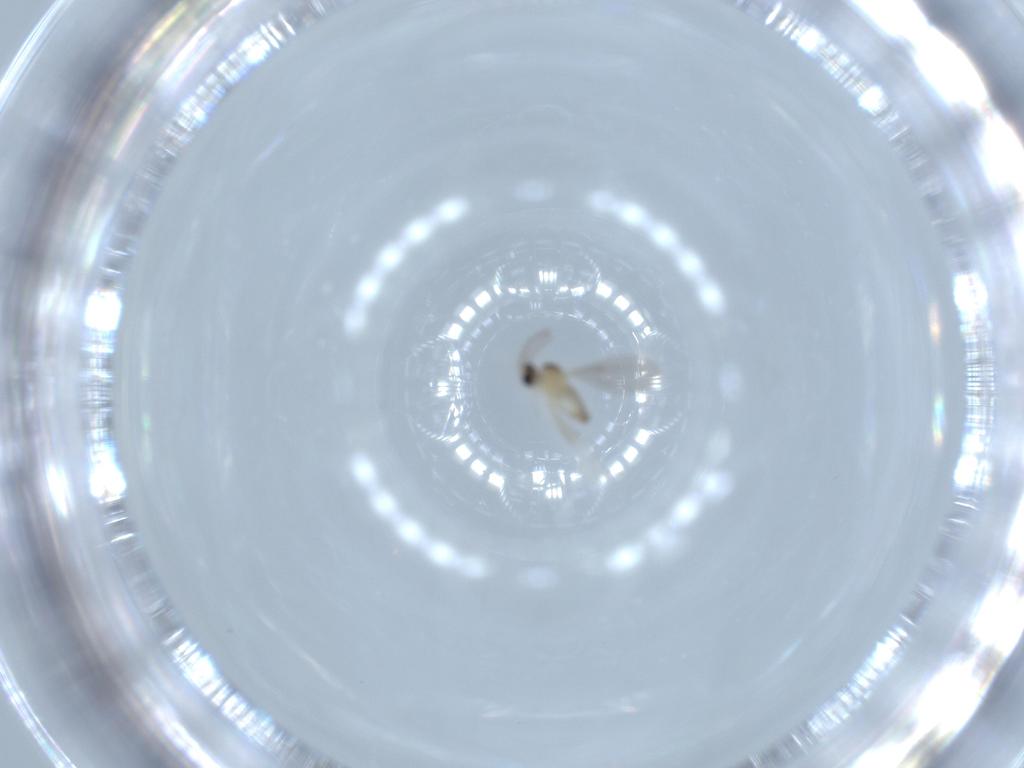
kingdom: Animalia
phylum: Arthropoda
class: Insecta
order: Diptera
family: Cecidomyiidae
